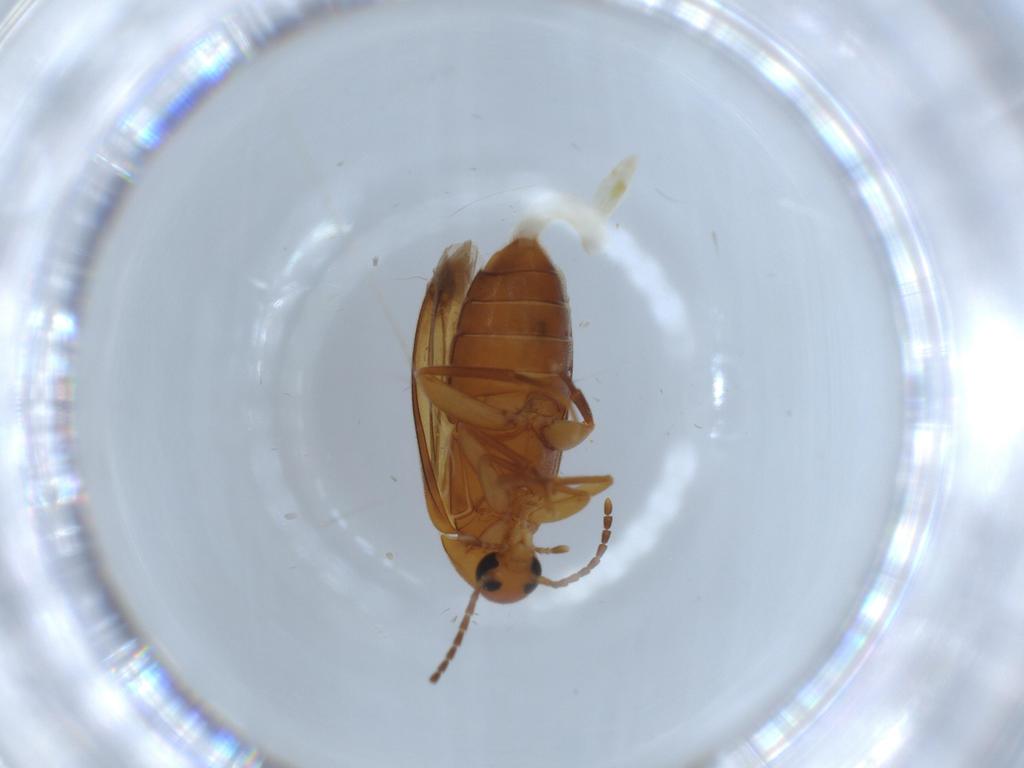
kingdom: Animalia
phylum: Arthropoda
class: Insecta
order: Coleoptera
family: Scraptiidae
